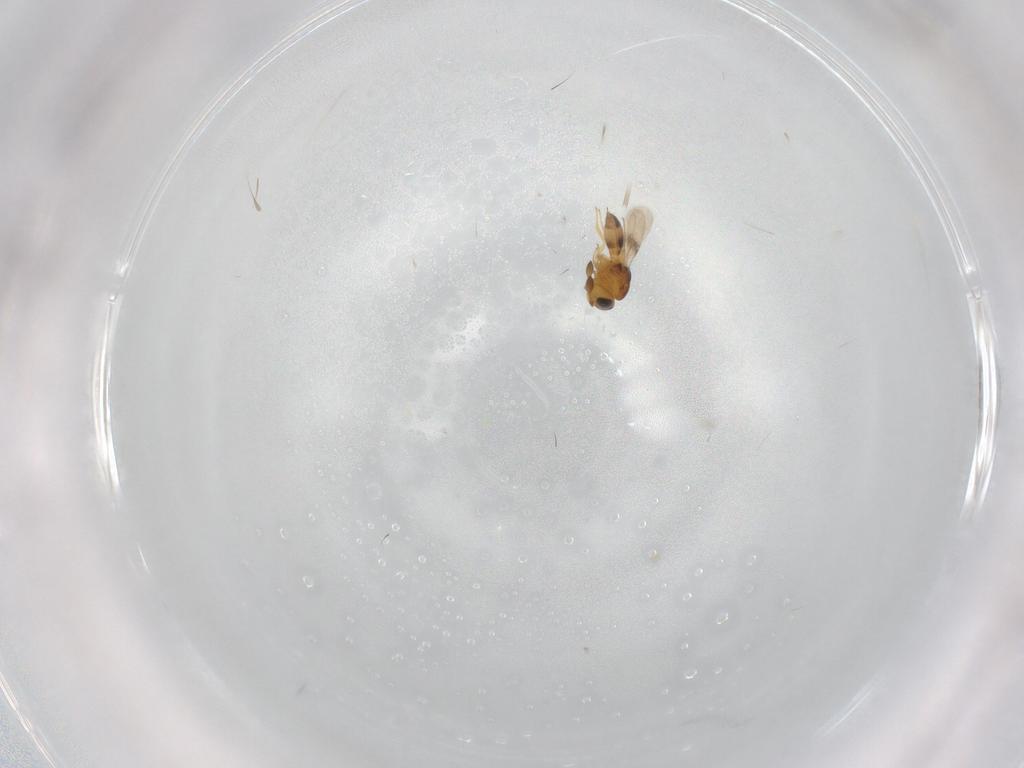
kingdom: Animalia
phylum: Arthropoda
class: Insecta
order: Hymenoptera
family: Scelionidae
